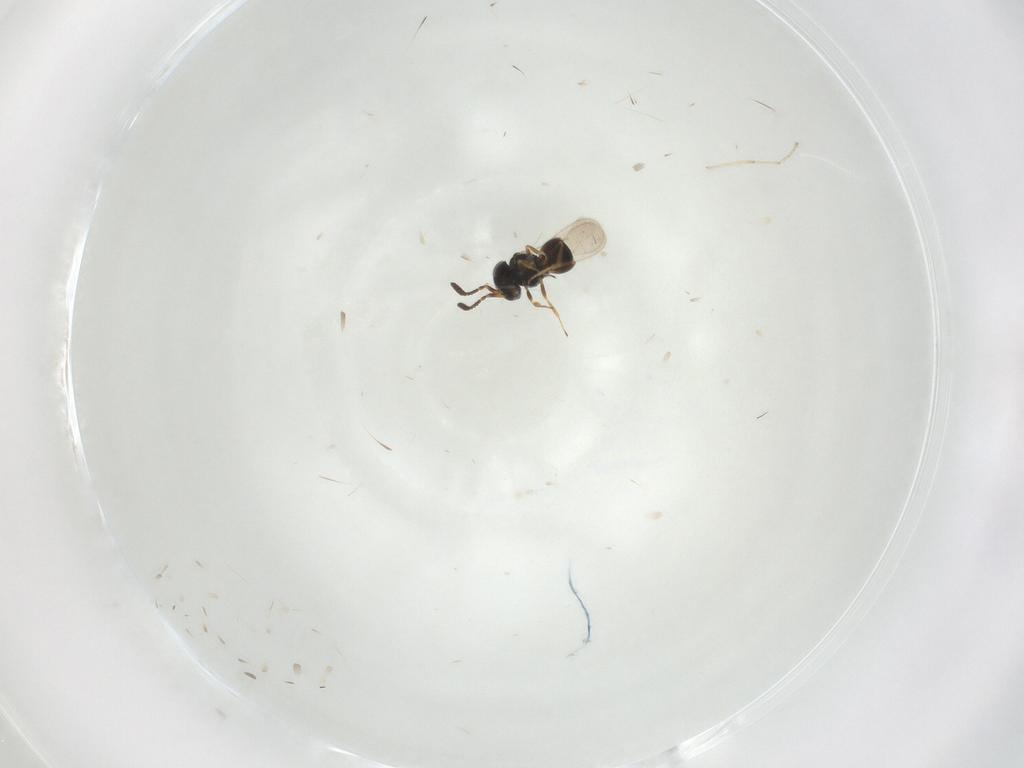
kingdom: Animalia
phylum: Arthropoda
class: Insecta
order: Hymenoptera
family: Scelionidae
